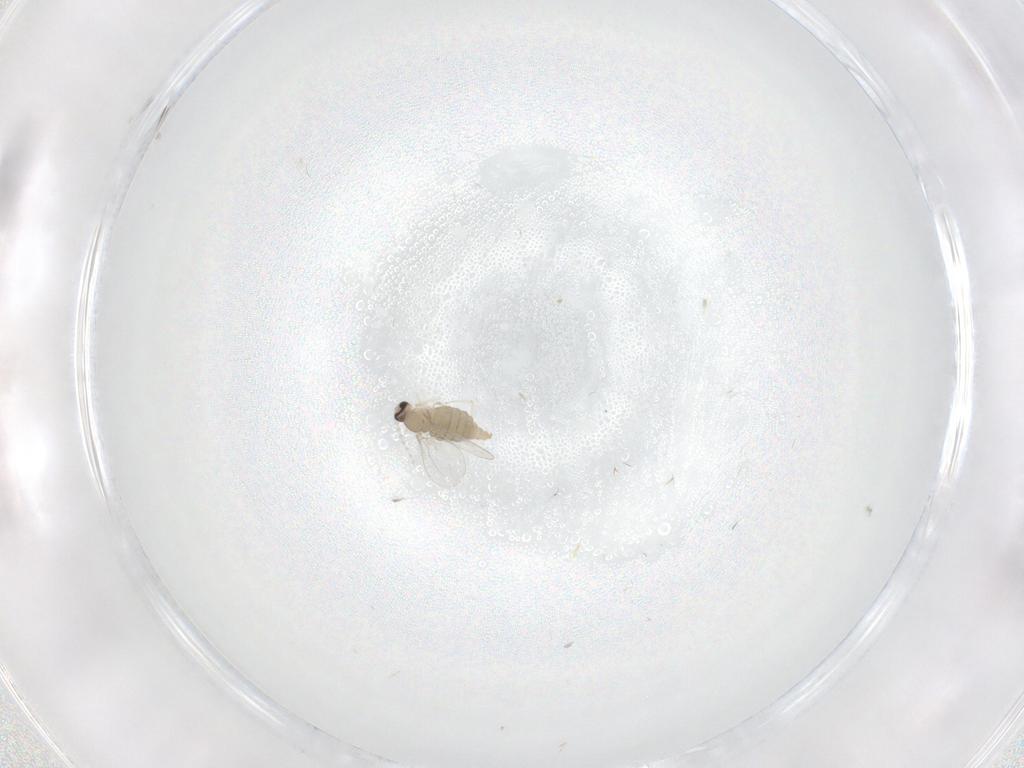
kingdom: Animalia
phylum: Arthropoda
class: Insecta
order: Diptera
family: Cecidomyiidae
